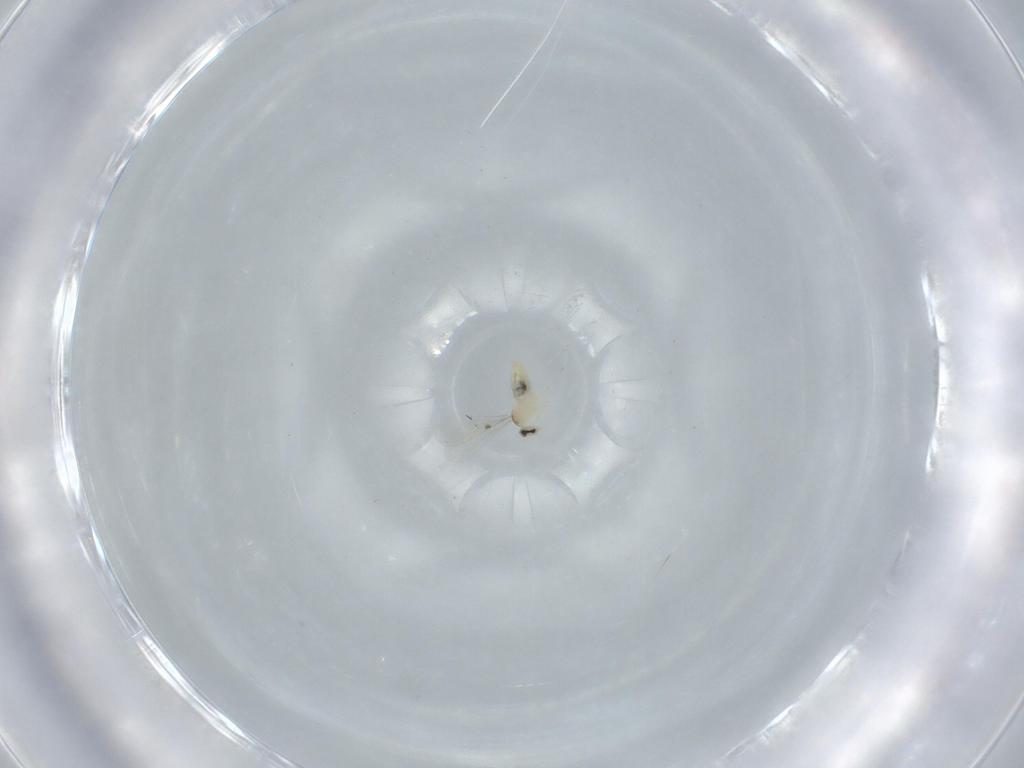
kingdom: Animalia
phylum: Arthropoda
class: Insecta
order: Diptera
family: Cecidomyiidae
